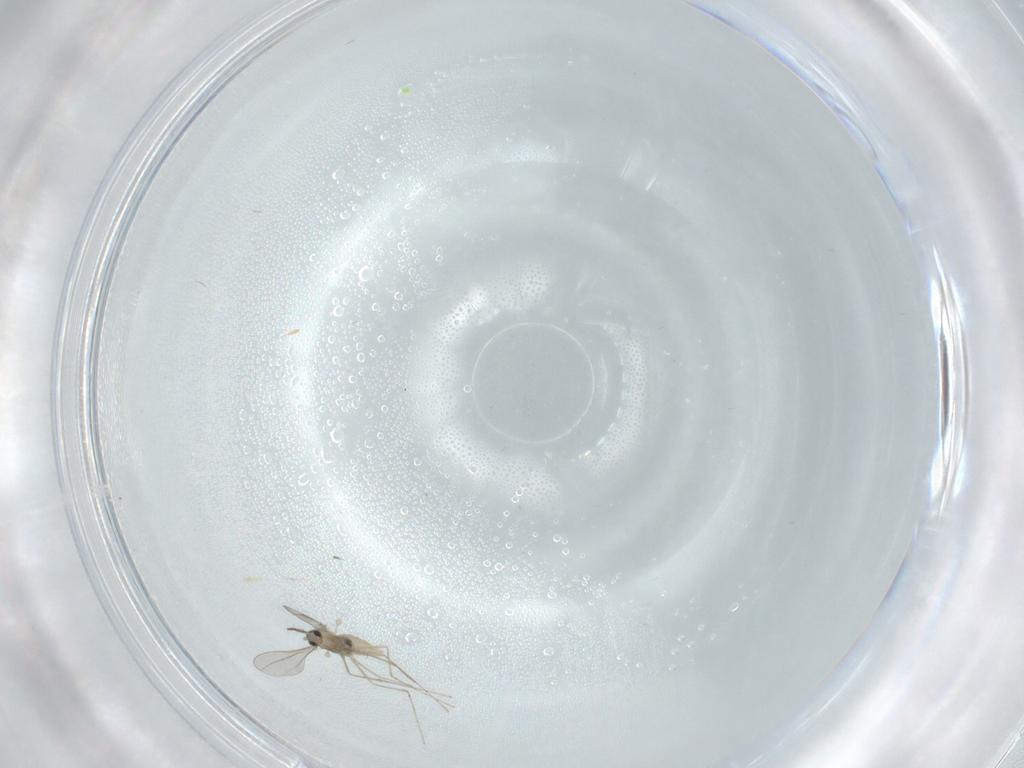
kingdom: Animalia
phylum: Arthropoda
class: Insecta
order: Diptera
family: Cecidomyiidae
